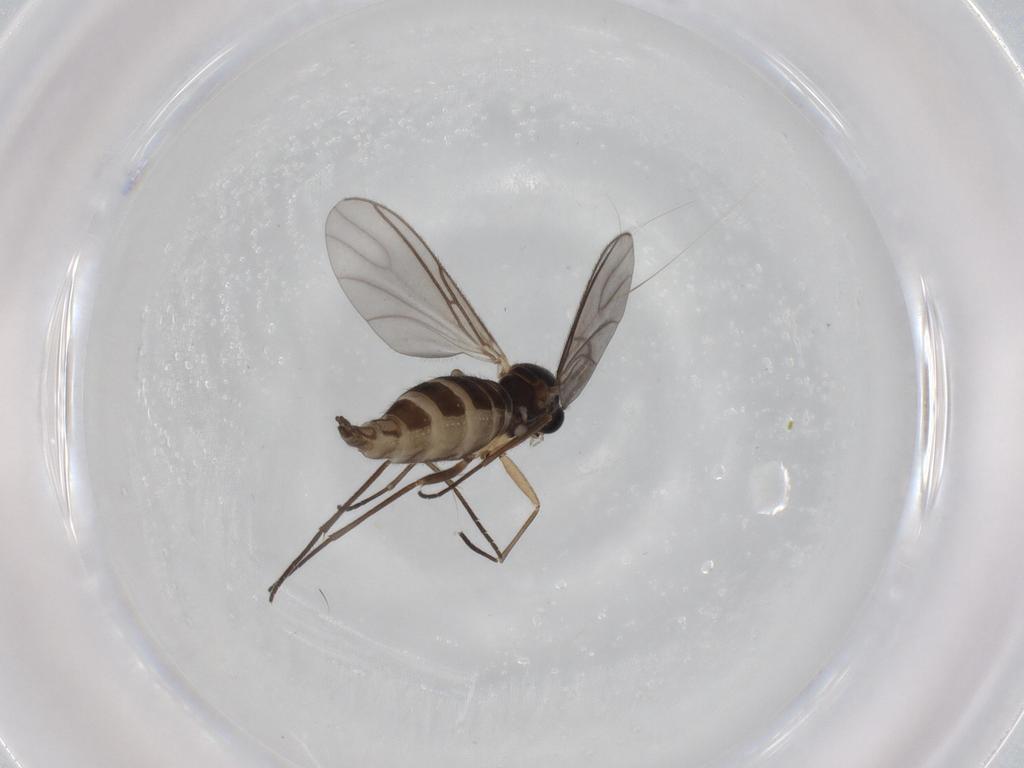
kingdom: Animalia
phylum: Arthropoda
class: Insecta
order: Diptera
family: Sciaridae
